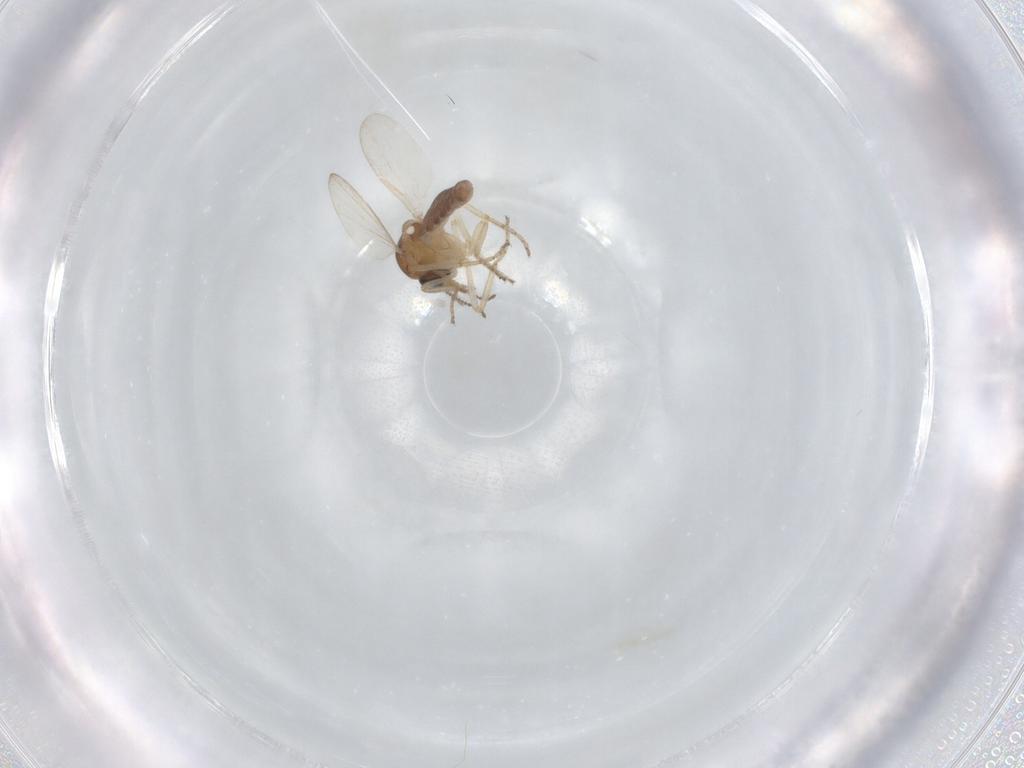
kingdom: Animalia
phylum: Arthropoda
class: Insecta
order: Diptera
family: Ceratopogonidae
